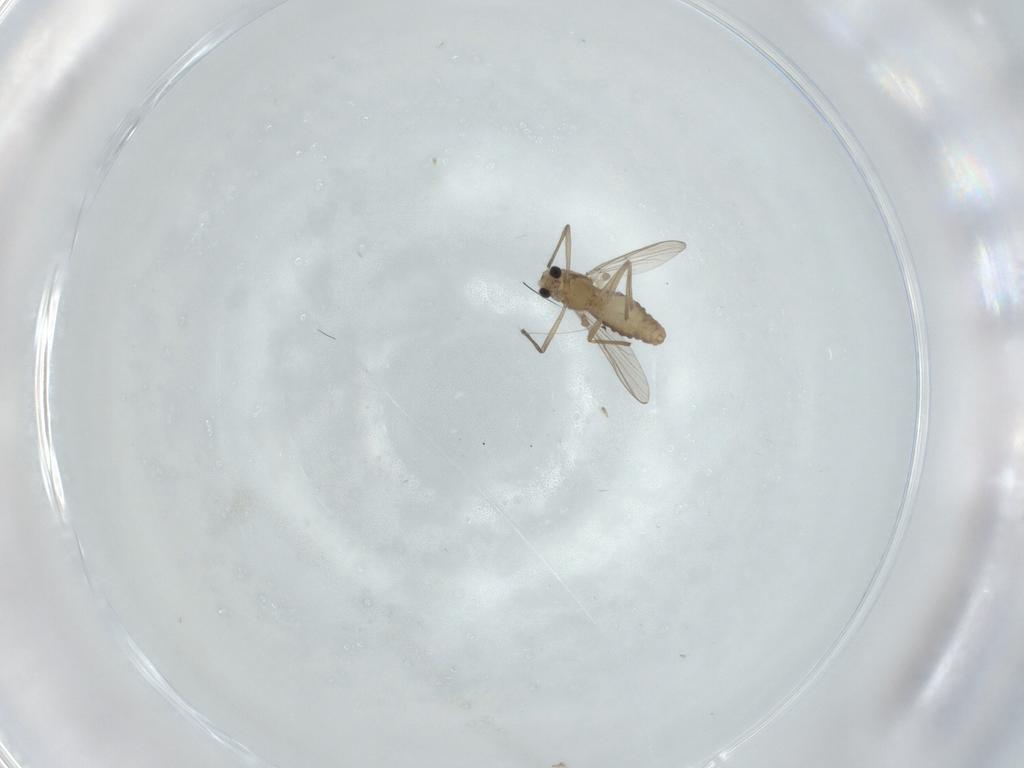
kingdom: Animalia
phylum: Arthropoda
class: Insecta
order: Diptera
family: Chironomidae
